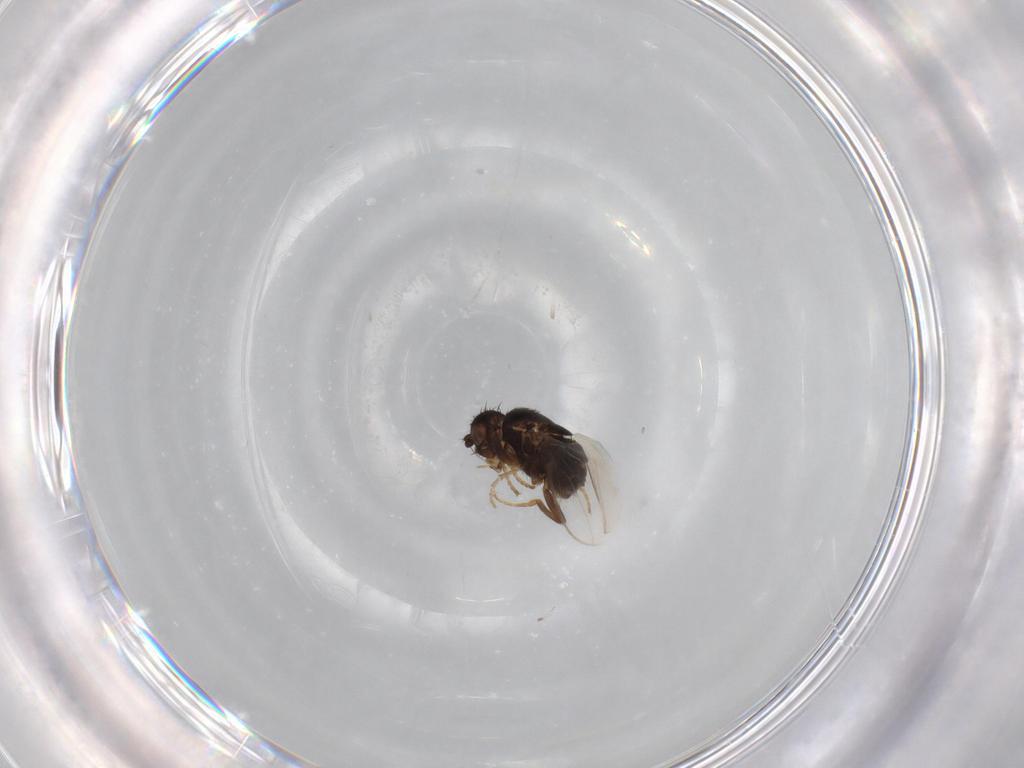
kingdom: Animalia
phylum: Arthropoda
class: Insecta
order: Diptera
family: Sphaeroceridae
